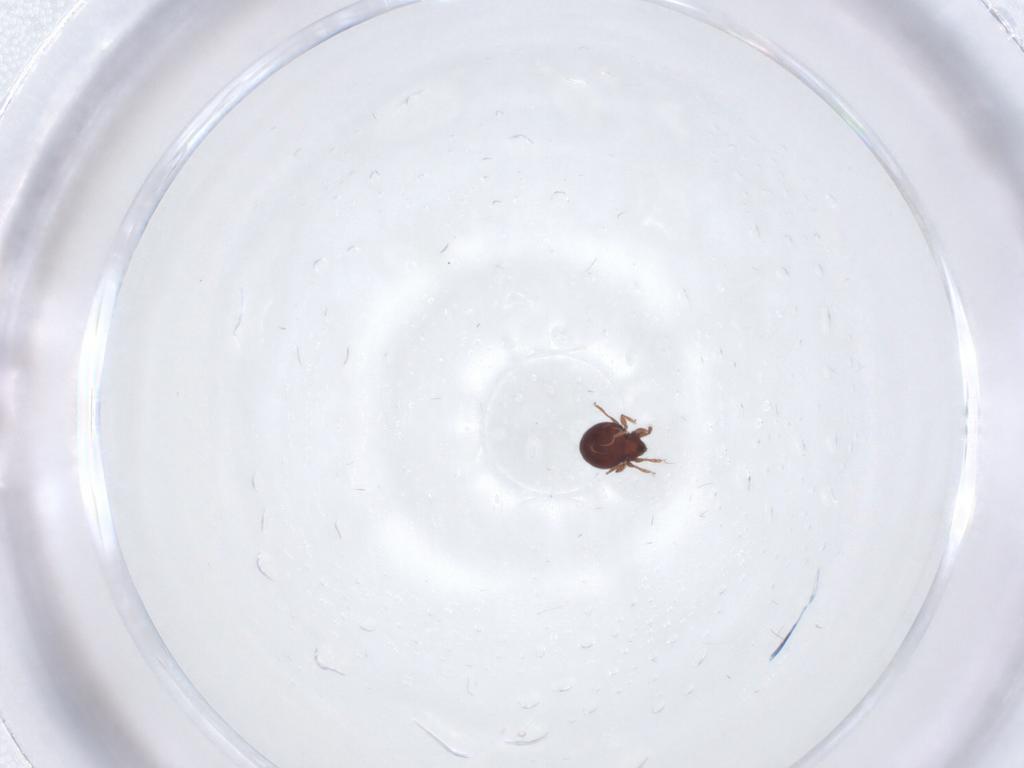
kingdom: Animalia
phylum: Arthropoda
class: Arachnida
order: Sarcoptiformes
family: Achipteriidae
